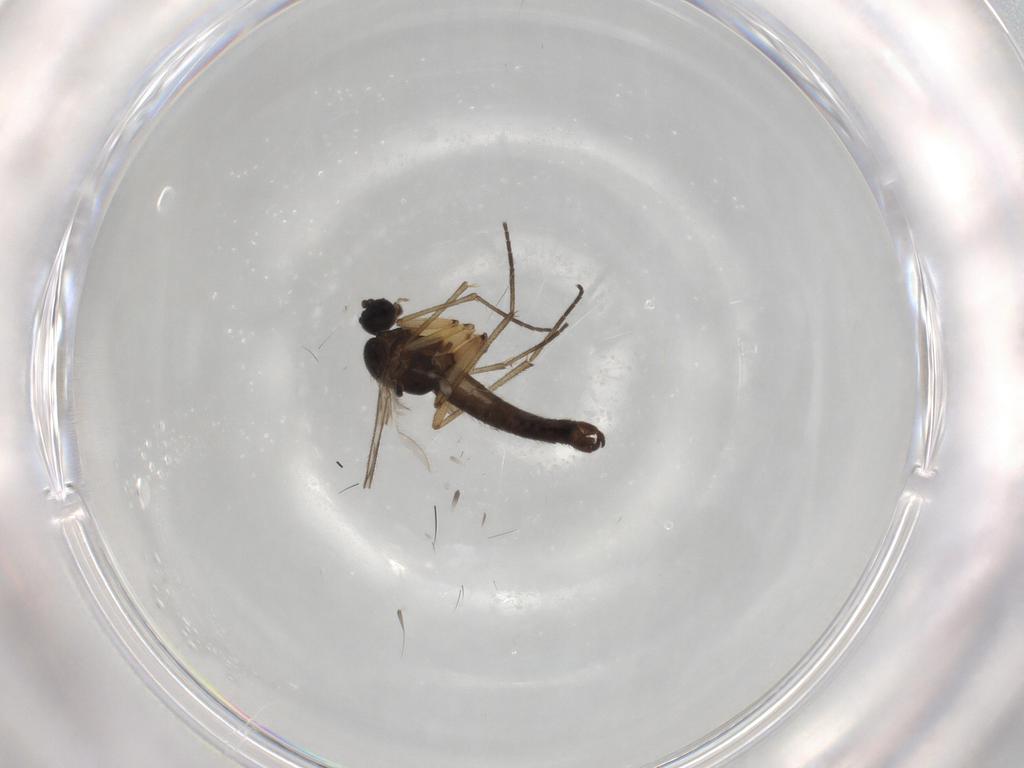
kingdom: Animalia
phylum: Arthropoda
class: Insecta
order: Diptera
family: Sciaridae
